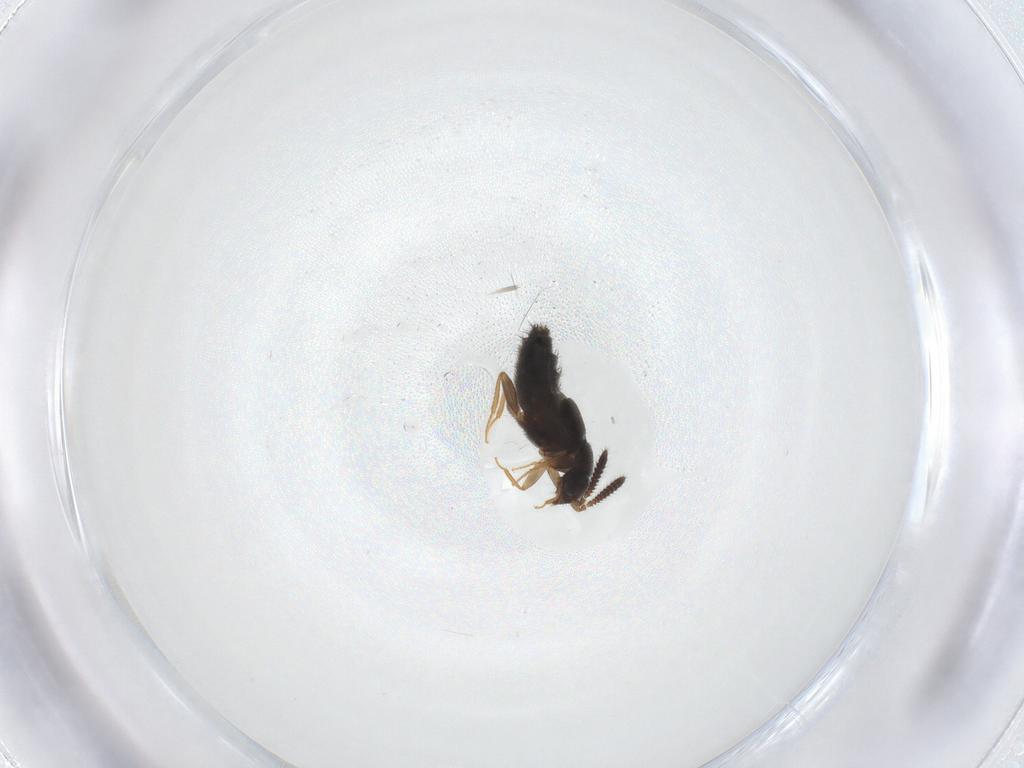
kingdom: Animalia
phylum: Arthropoda
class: Insecta
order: Coleoptera
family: Staphylinidae
